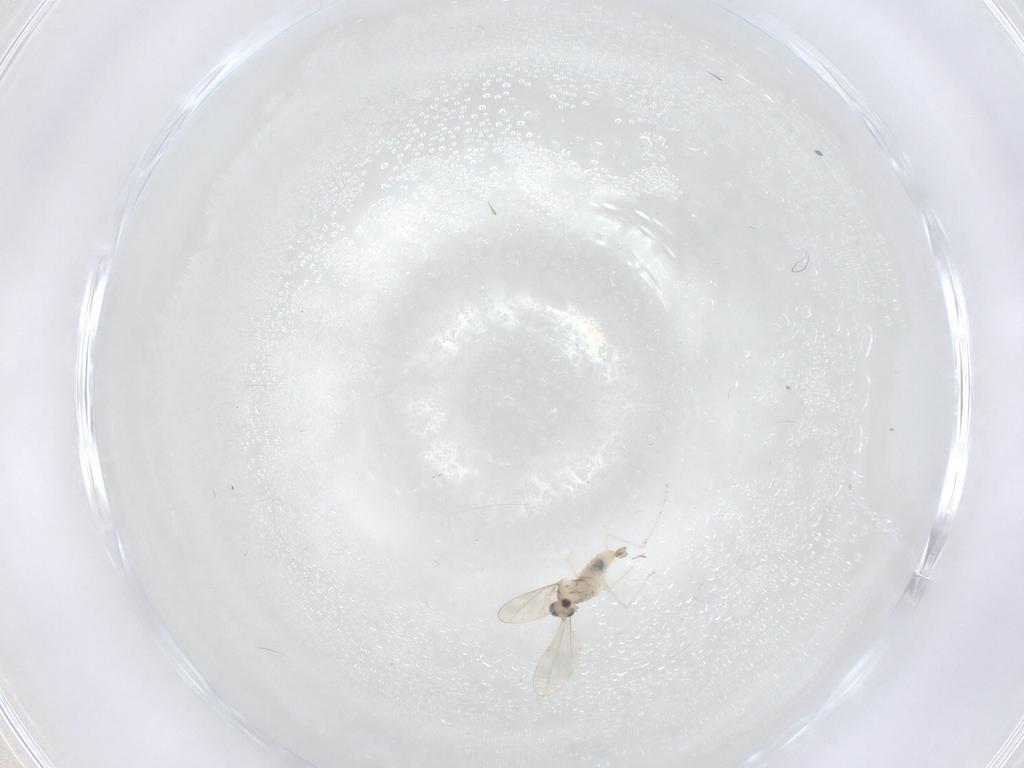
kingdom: Animalia
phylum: Arthropoda
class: Insecta
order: Diptera
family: Cecidomyiidae
